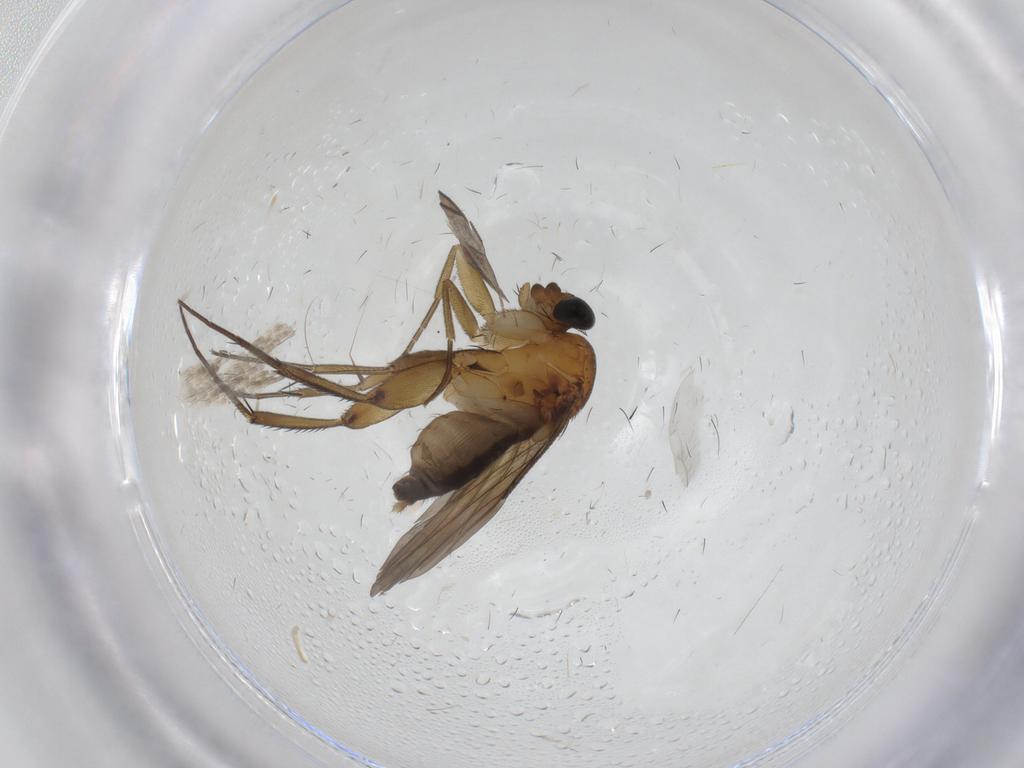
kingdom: Animalia
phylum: Arthropoda
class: Insecta
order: Diptera
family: Phoridae
